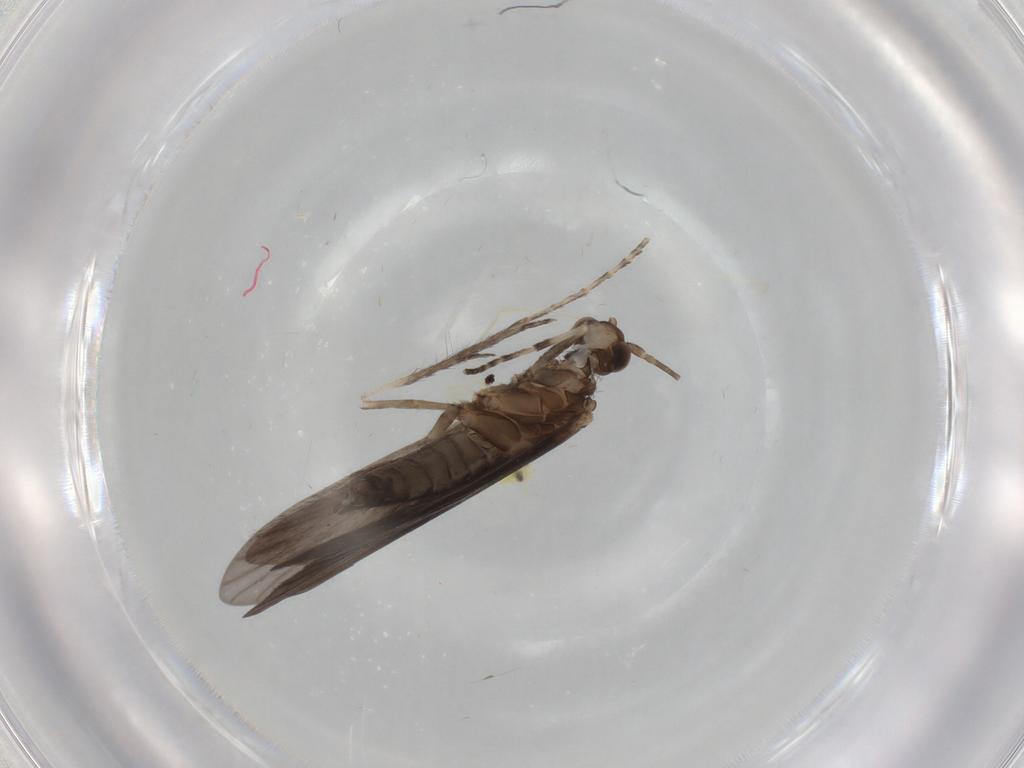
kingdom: Animalia
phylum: Arthropoda
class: Insecta
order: Trichoptera
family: Xiphocentronidae
